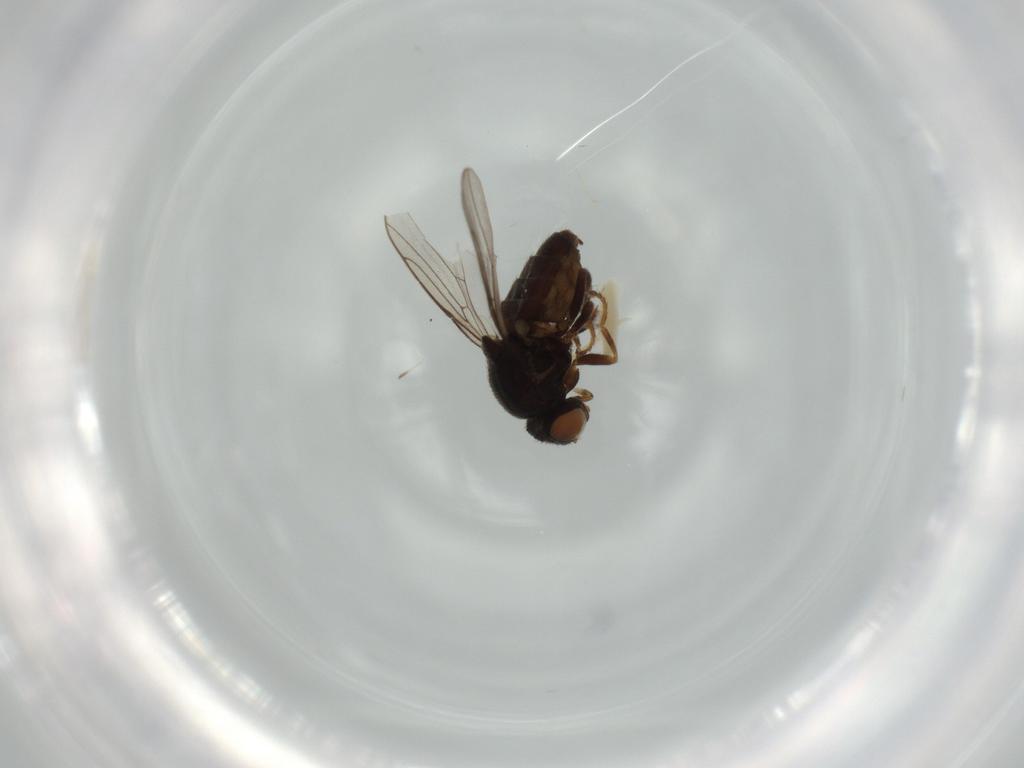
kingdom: Animalia
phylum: Arthropoda
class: Insecta
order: Diptera
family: Chloropidae
